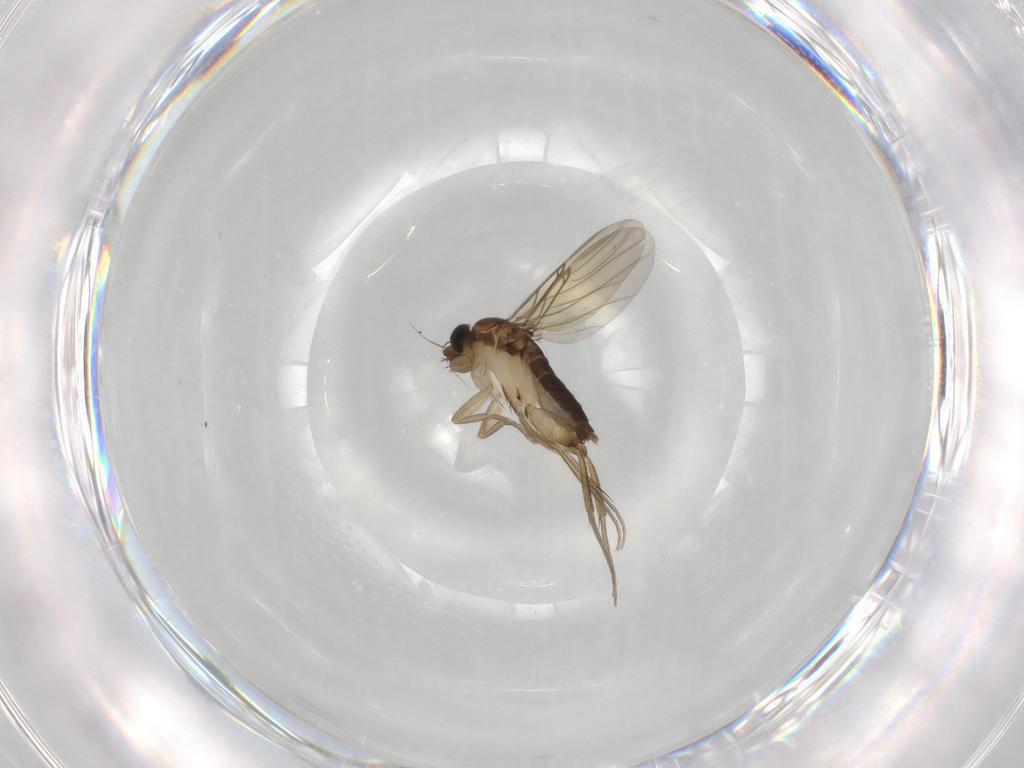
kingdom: Animalia
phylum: Arthropoda
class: Insecta
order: Diptera
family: Phoridae
